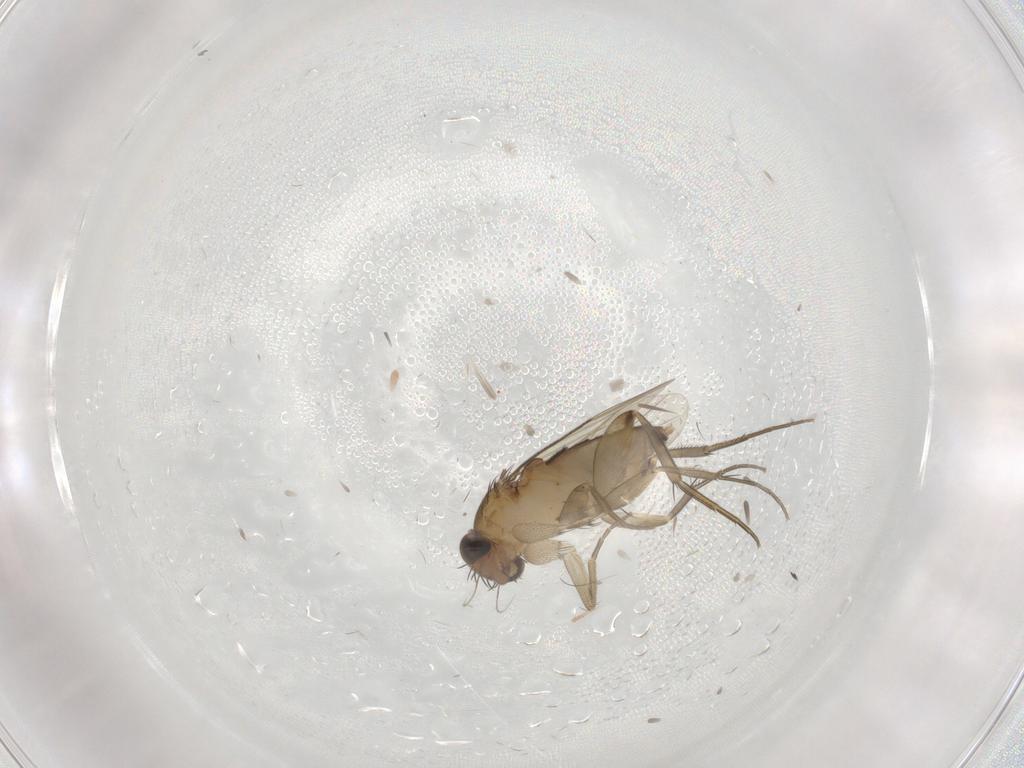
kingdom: Animalia
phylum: Arthropoda
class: Insecta
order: Diptera
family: Phoridae
